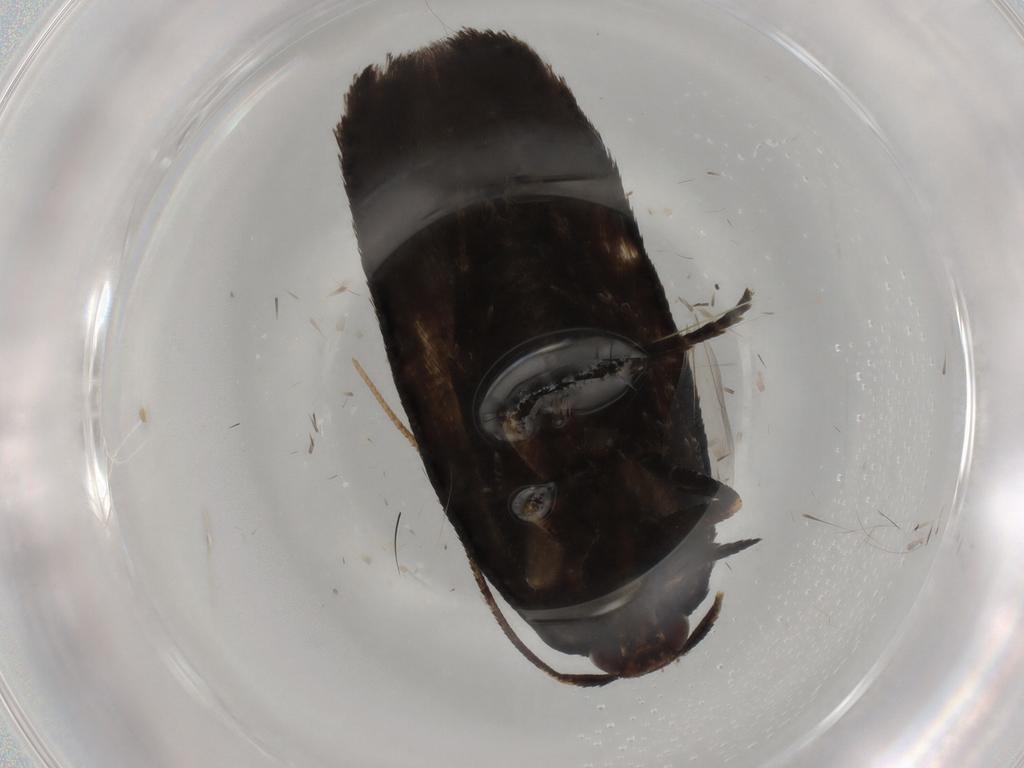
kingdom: Animalia
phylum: Arthropoda
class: Insecta
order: Lepidoptera
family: Cosmopterigidae
